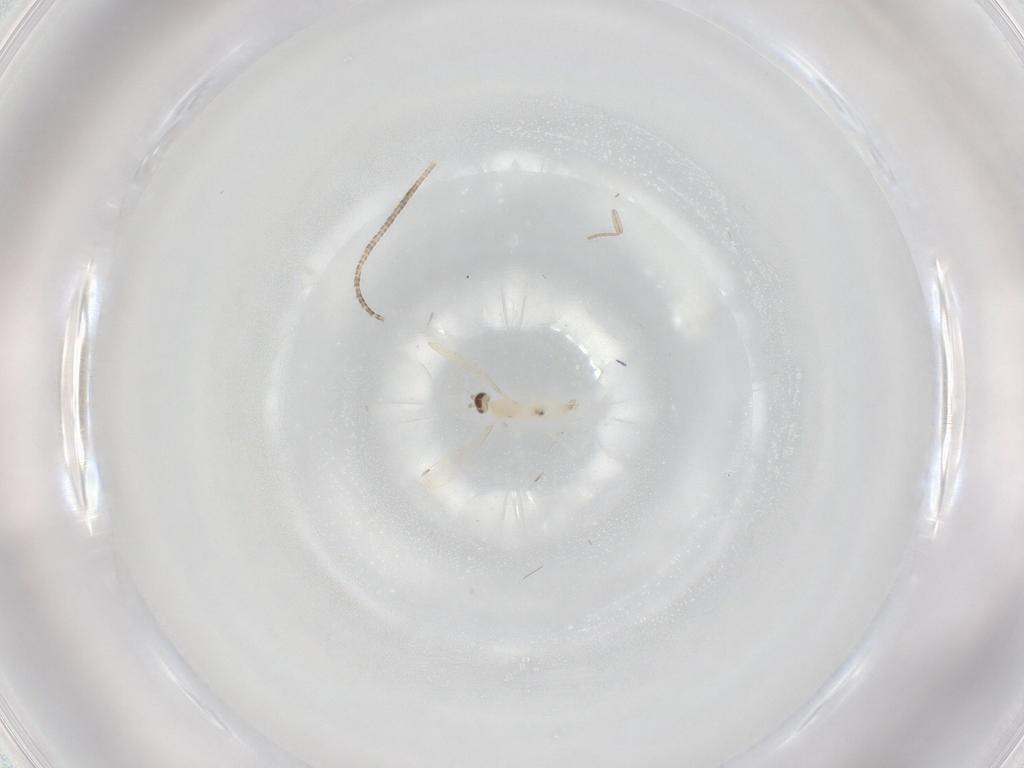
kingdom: Animalia
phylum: Arthropoda
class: Insecta
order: Diptera
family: Cecidomyiidae
